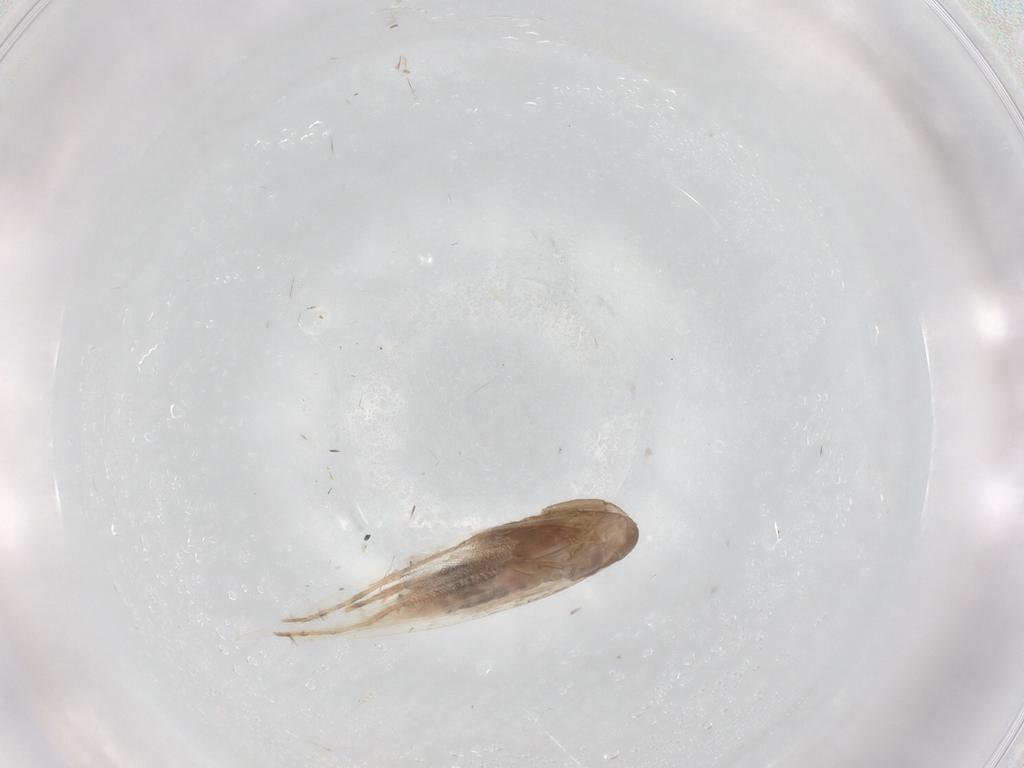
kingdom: Animalia
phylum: Arthropoda
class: Insecta
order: Lepidoptera
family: Gracillariidae
